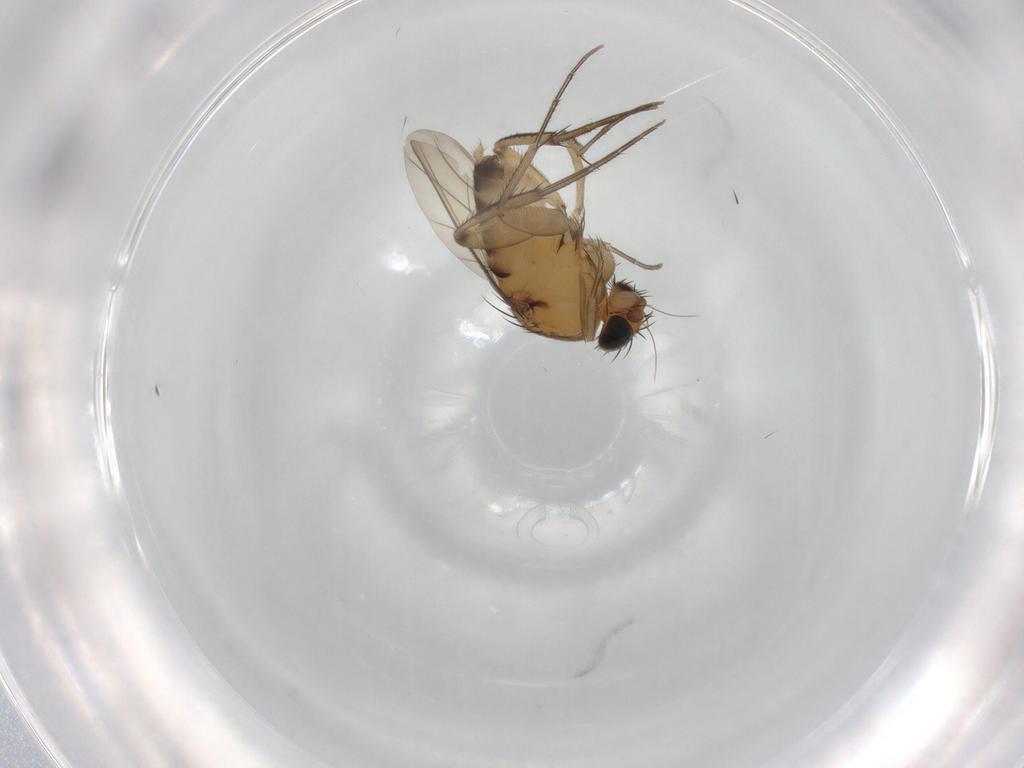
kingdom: Animalia
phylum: Arthropoda
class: Insecta
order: Diptera
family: Phoridae
